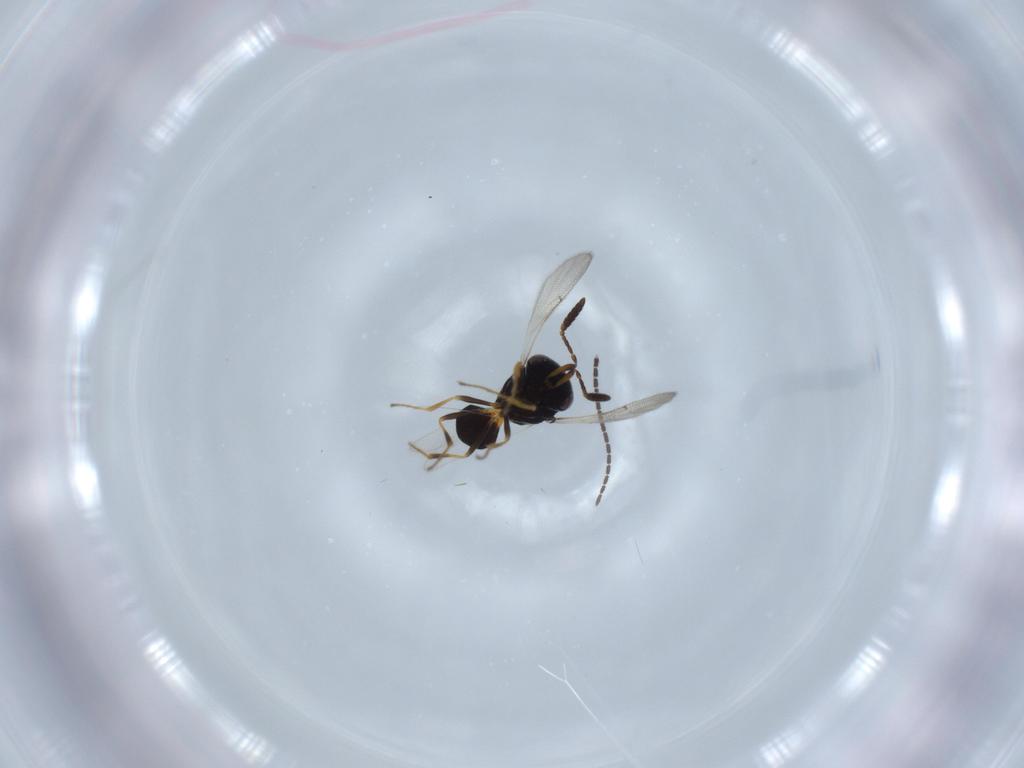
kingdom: Animalia
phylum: Arthropoda
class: Insecta
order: Hymenoptera
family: Scelionidae
